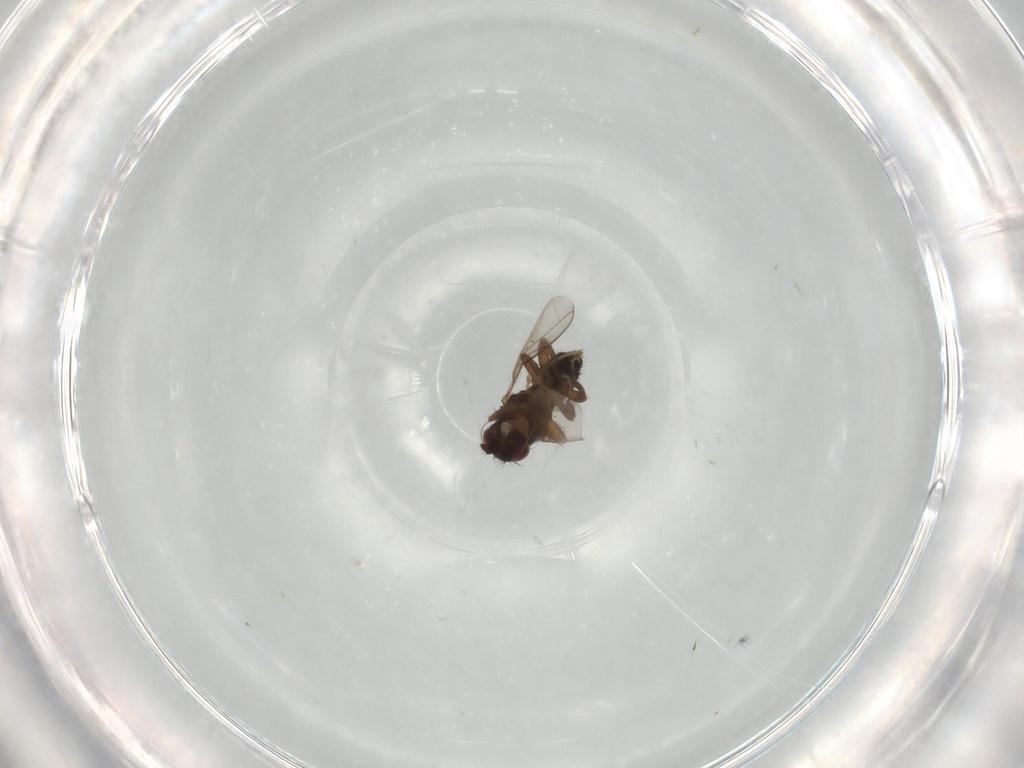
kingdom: Animalia
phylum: Arthropoda
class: Insecta
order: Diptera
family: Sphaeroceridae
